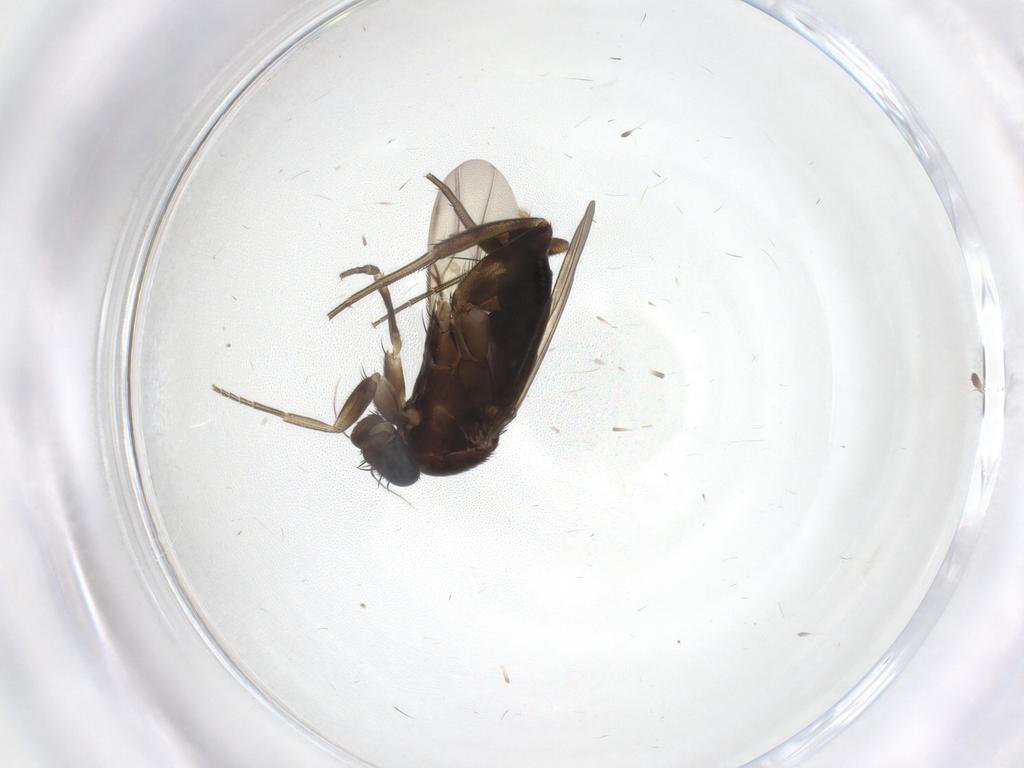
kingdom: Animalia
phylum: Arthropoda
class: Insecta
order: Diptera
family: Phoridae
